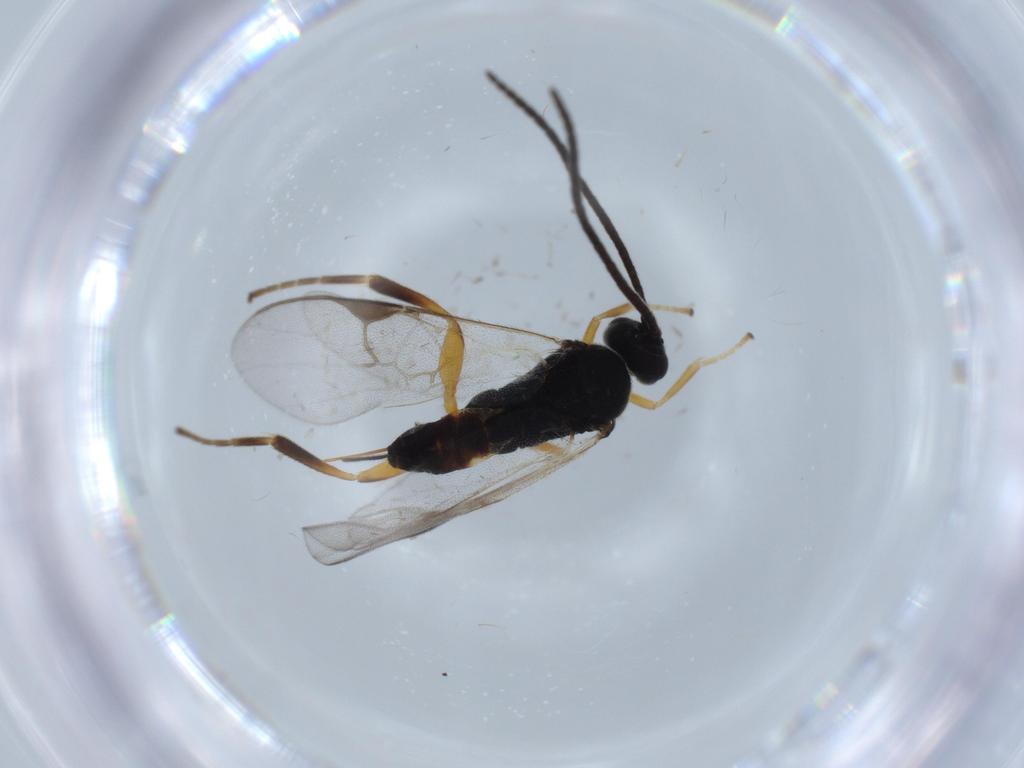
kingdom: Animalia
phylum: Arthropoda
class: Insecta
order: Hymenoptera
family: Braconidae
